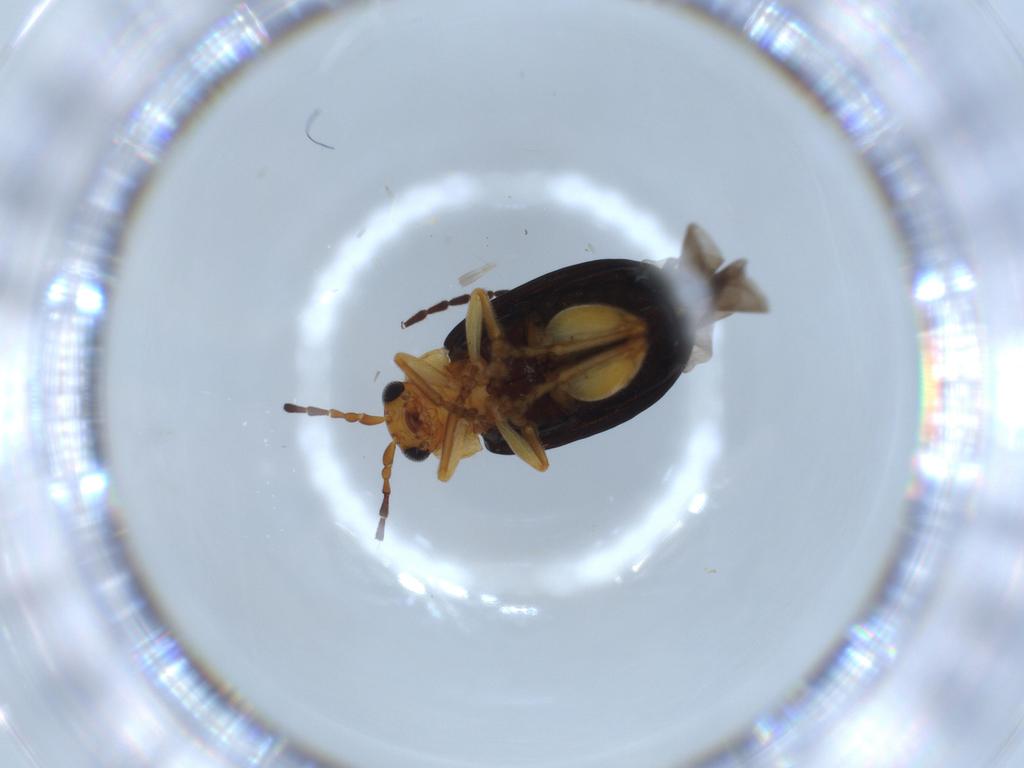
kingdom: Animalia
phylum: Arthropoda
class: Insecta
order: Coleoptera
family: Chrysomelidae
